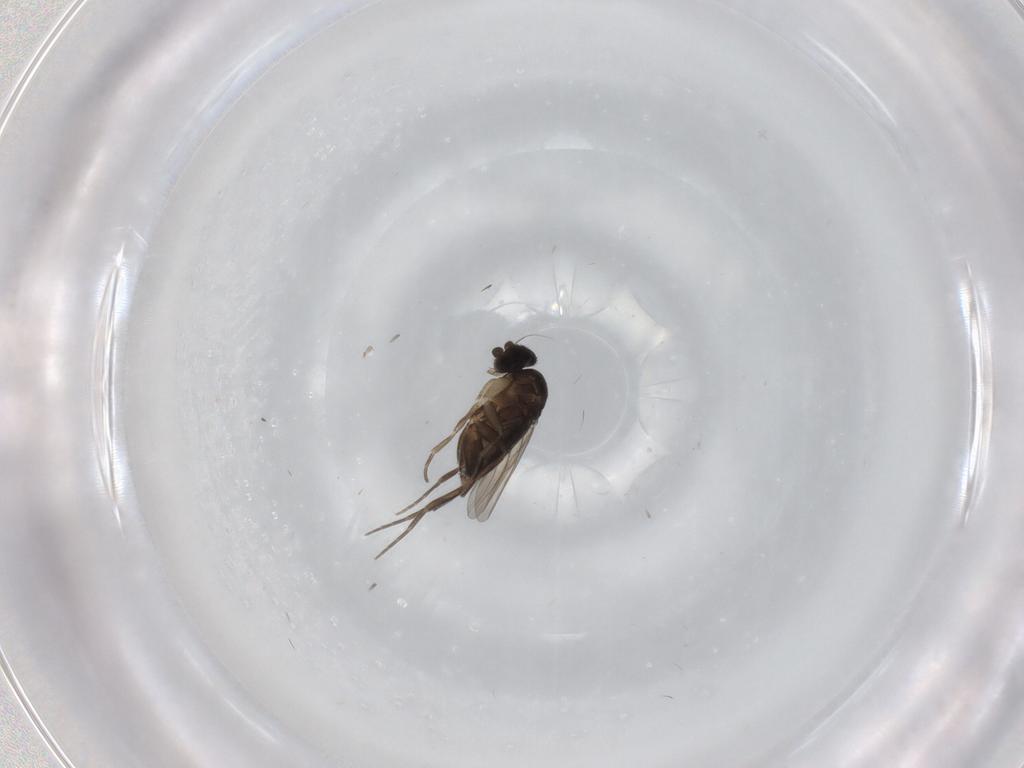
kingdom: Animalia
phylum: Arthropoda
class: Insecta
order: Diptera
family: Phoridae
